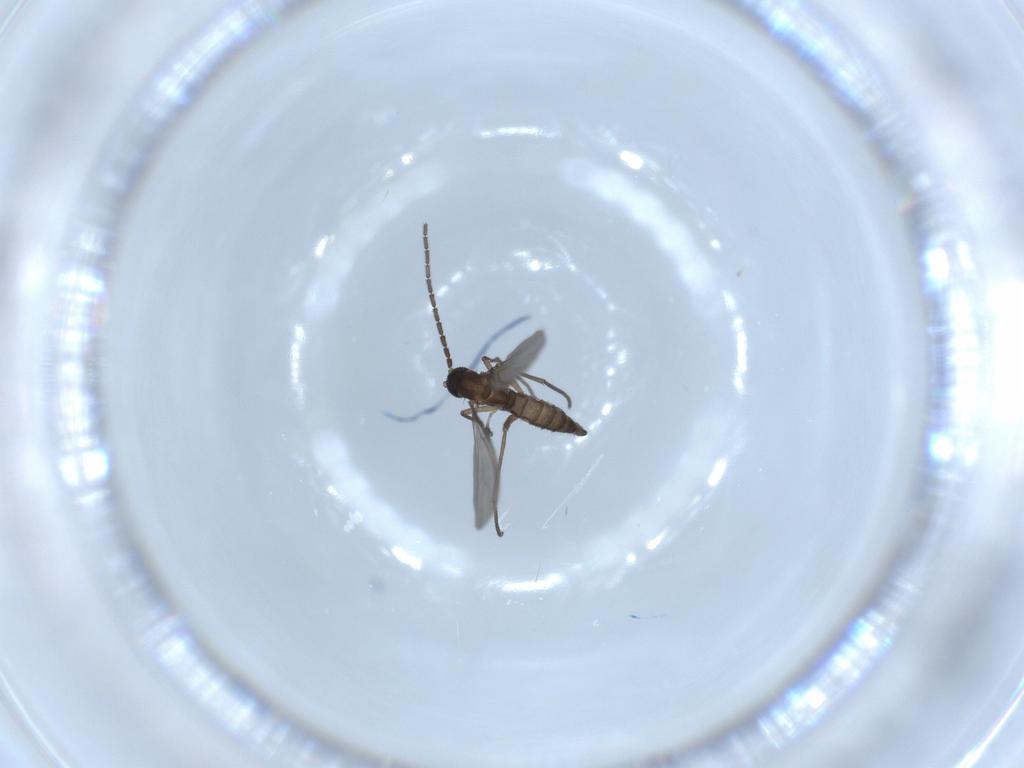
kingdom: Animalia
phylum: Arthropoda
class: Insecta
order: Diptera
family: Sciaridae
